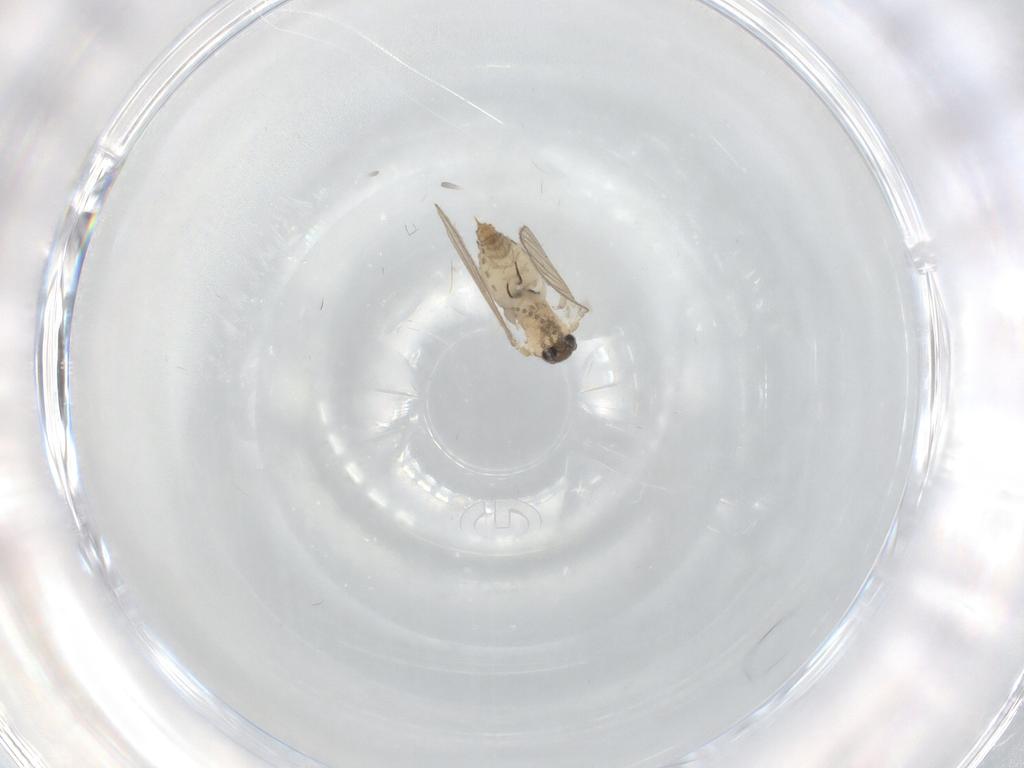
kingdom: Animalia
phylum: Arthropoda
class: Insecta
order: Diptera
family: Psychodidae
